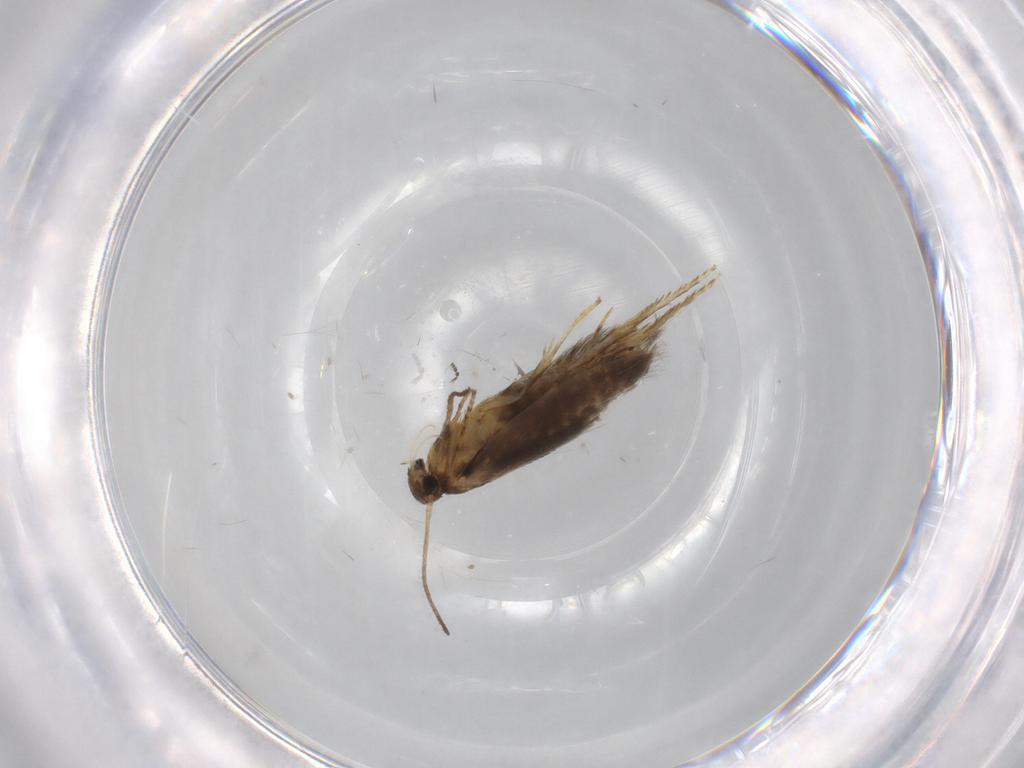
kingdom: Animalia
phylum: Arthropoda
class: Insecta
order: Lepidoptera
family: Heliozelidae
